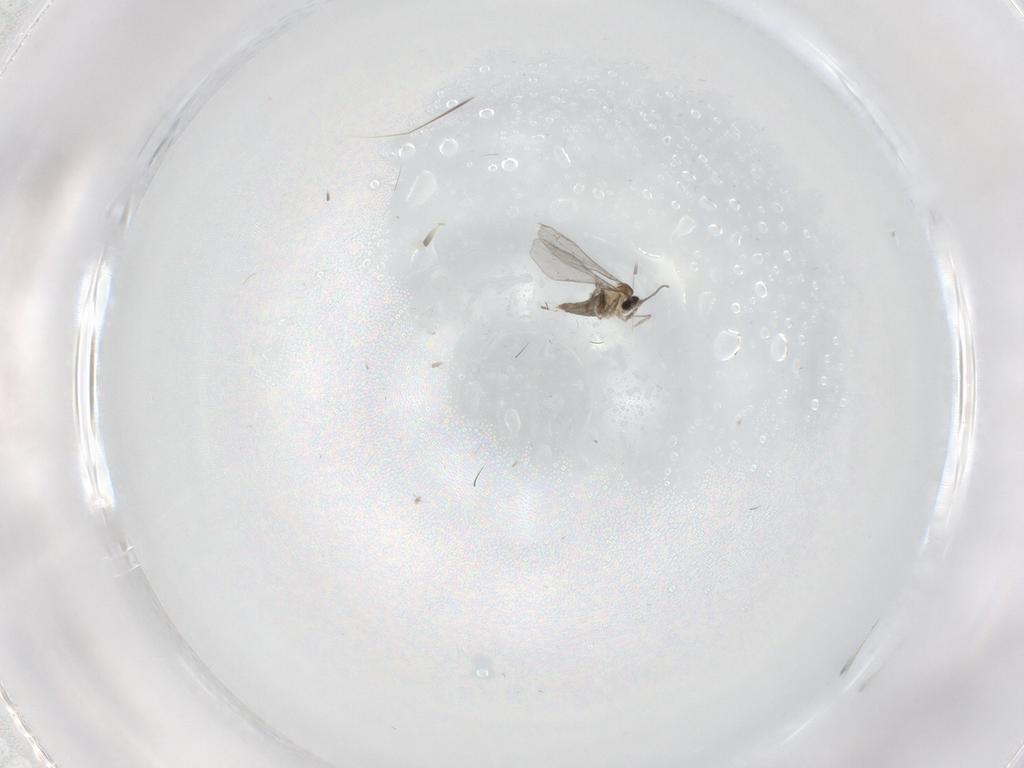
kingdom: Animalia
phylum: Arthropoda
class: Insecta
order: Diptera
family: Cecidomyiidae
